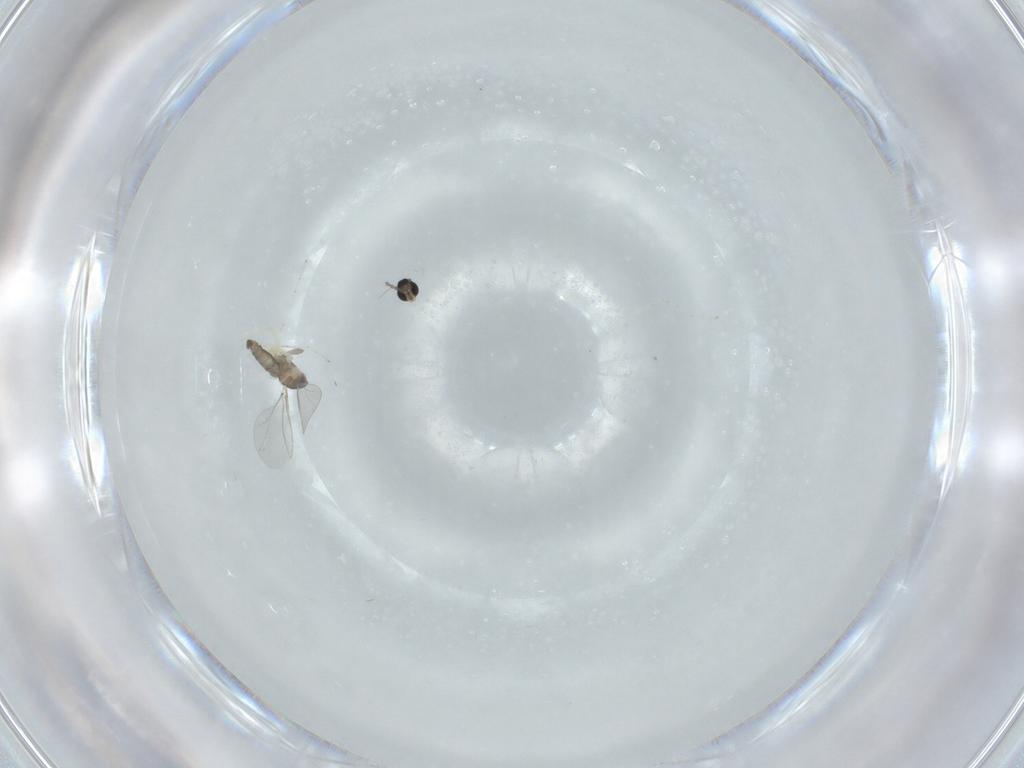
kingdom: Animalia
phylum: Arthropoda
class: Insecta
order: Diptera
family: Cecidomyiidae
